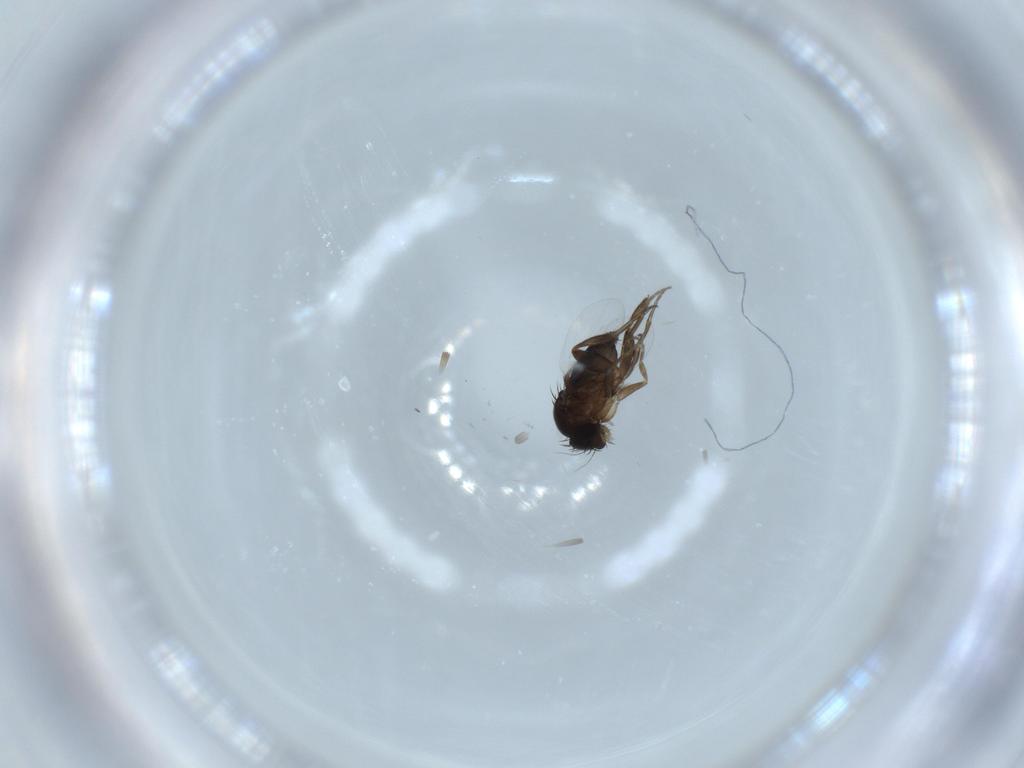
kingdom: Animalia
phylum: Arthropoda
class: Insecta
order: Diptera
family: Phoridae
